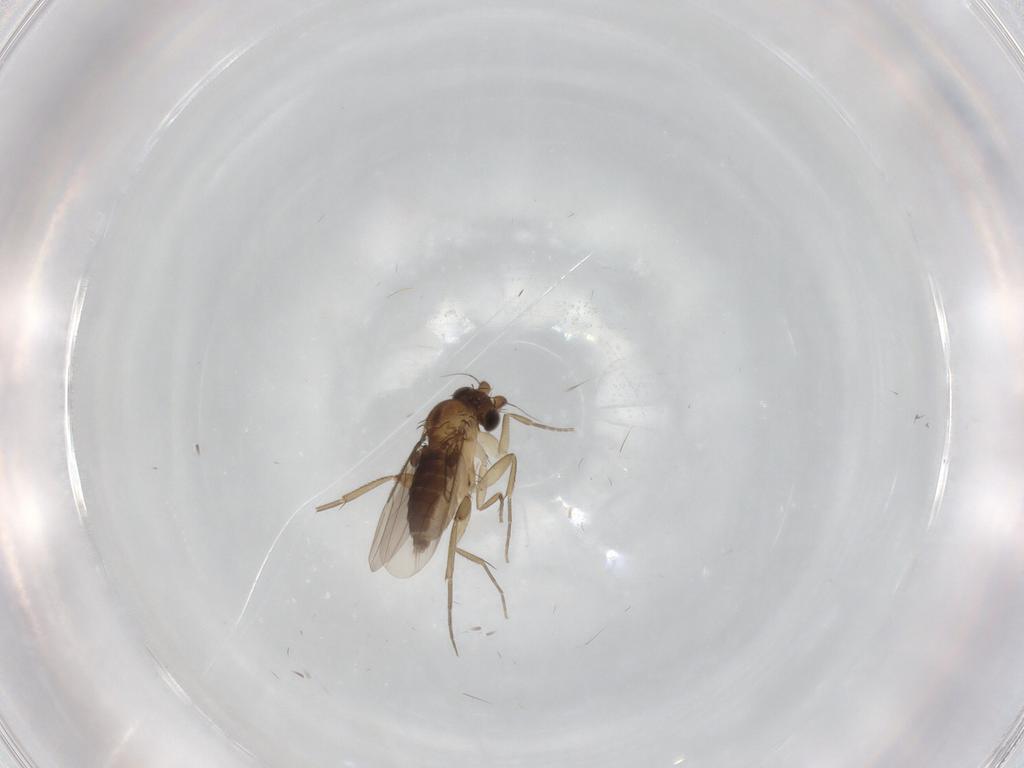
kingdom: Animalia
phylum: Arthropoda
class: Insecta
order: Diptera
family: Phoridae
